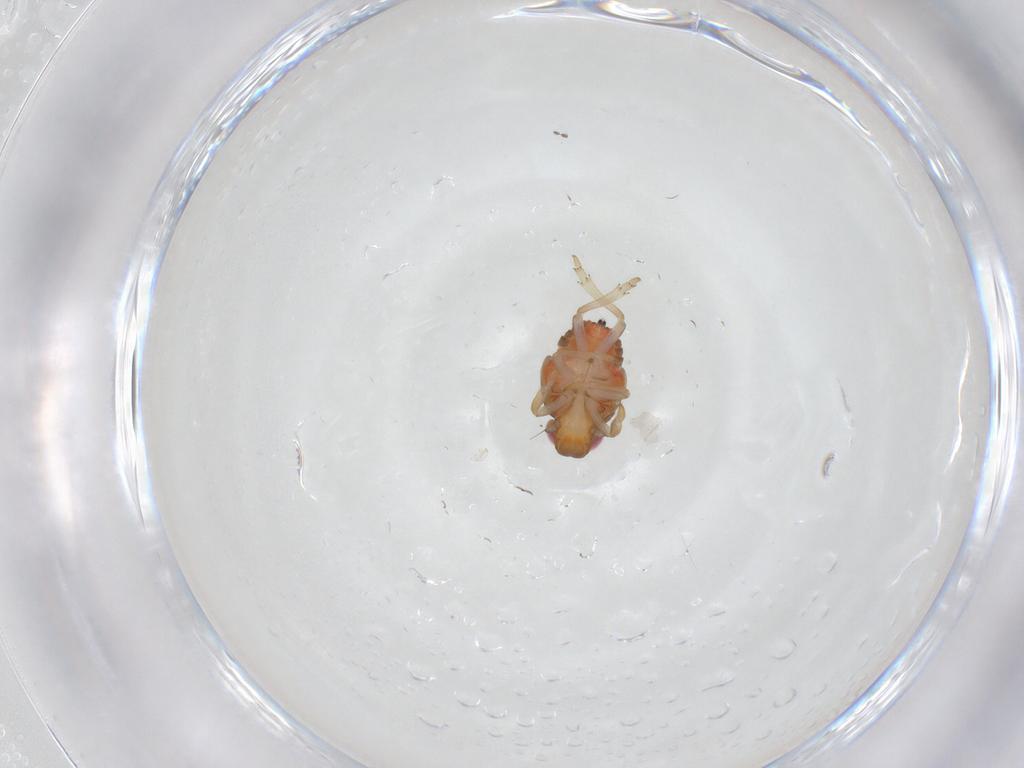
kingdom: Animalia
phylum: Arthropoda
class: Insecta
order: Hemiptera
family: Issidae
